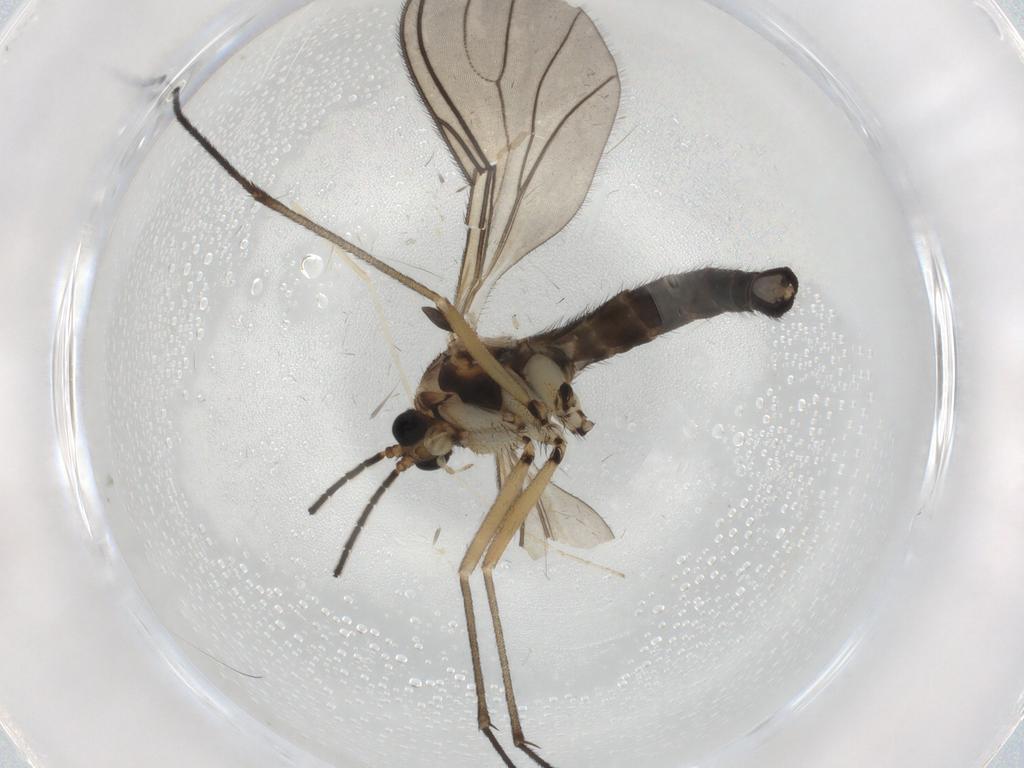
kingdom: Animalia
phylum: Arthropoda
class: Insecta
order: Diptera
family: Sciaridae
